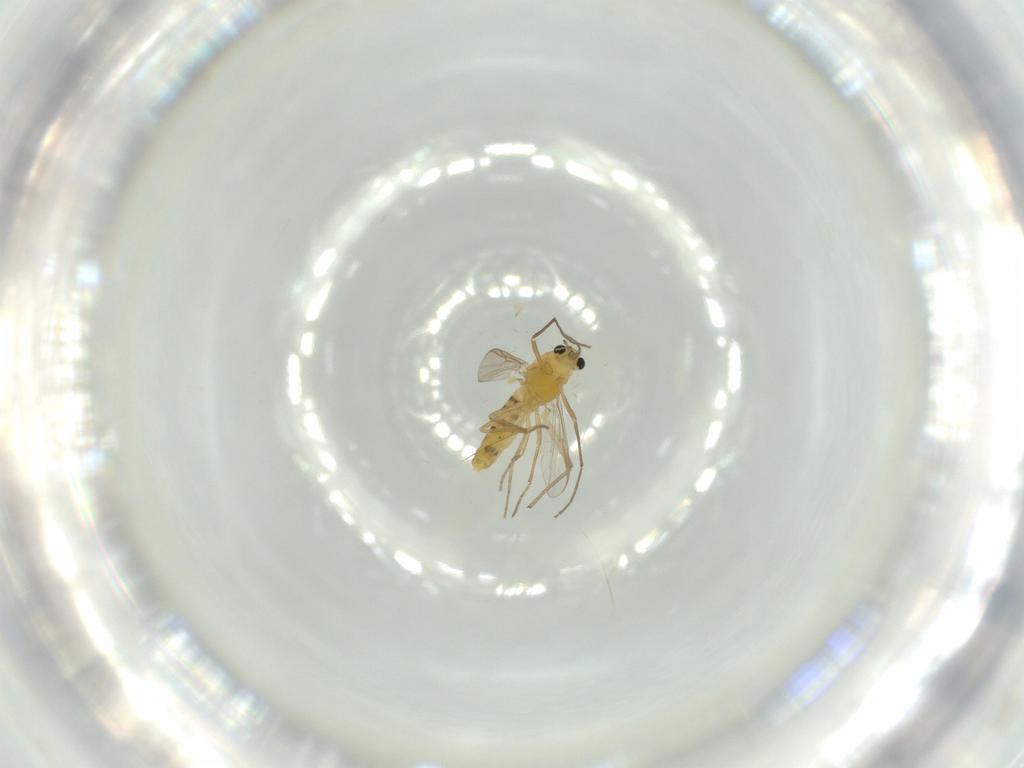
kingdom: Animalia
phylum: Arthropoda
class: Insecta
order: Diptera
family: Chironomidae
